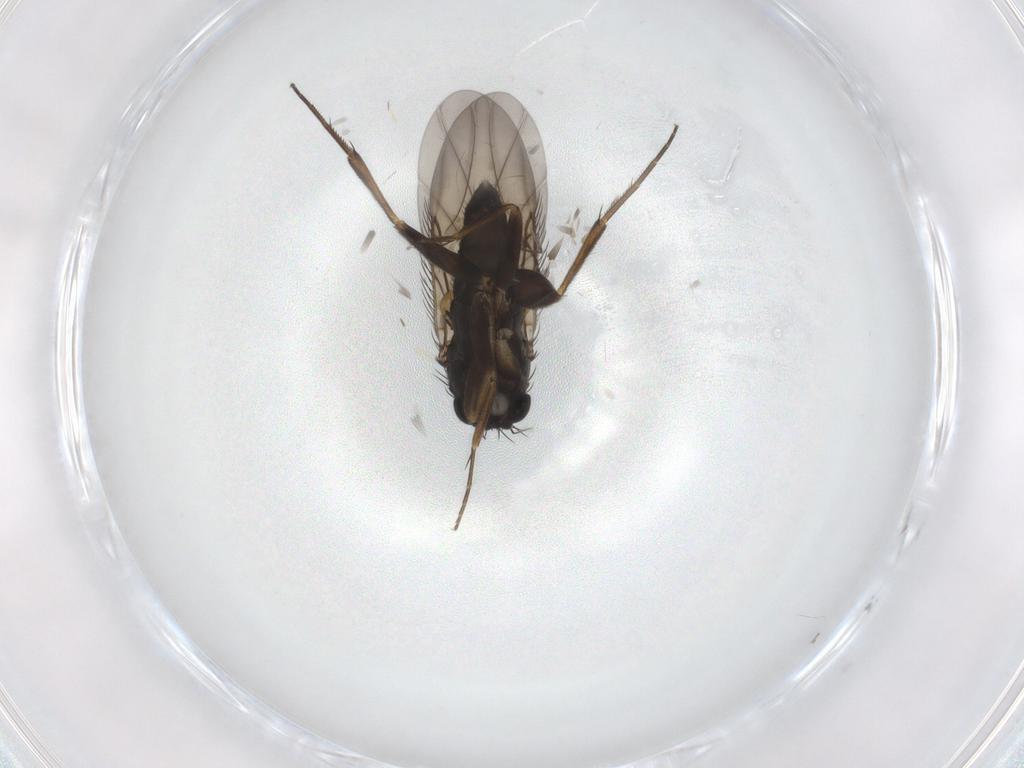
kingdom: Animalia
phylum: Arthropoda
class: Insecta
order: Diptera
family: Phoridae
